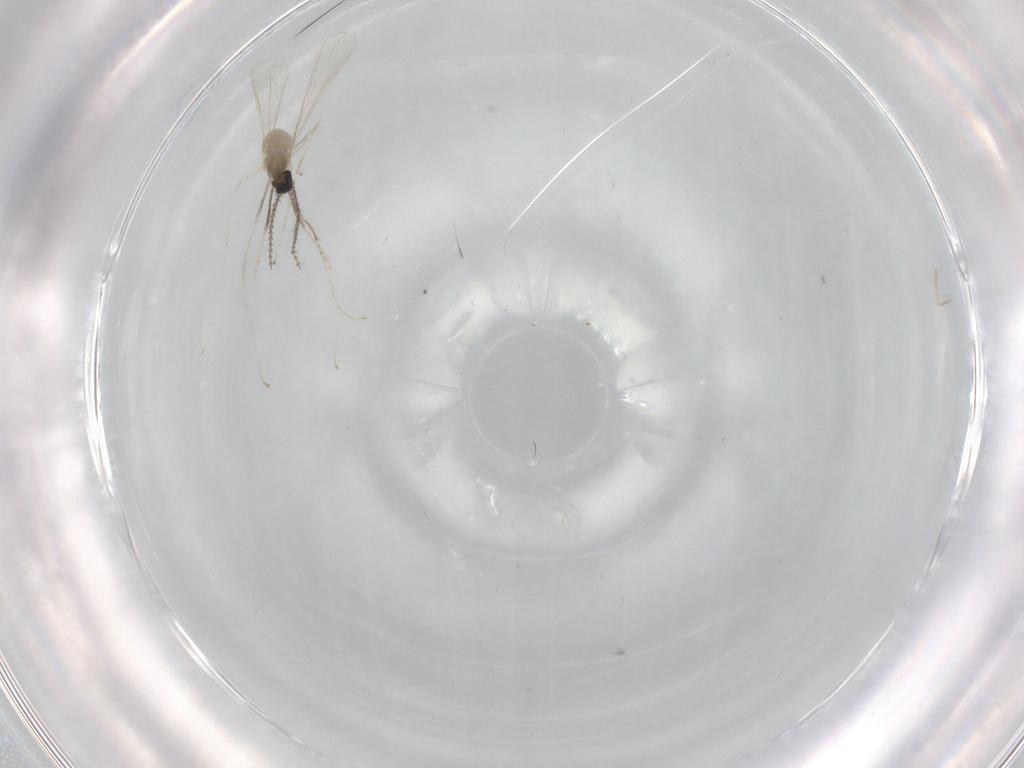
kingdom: Animalia
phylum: Arthropoda
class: Insecta
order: Diptera
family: Cecidomyiidae
